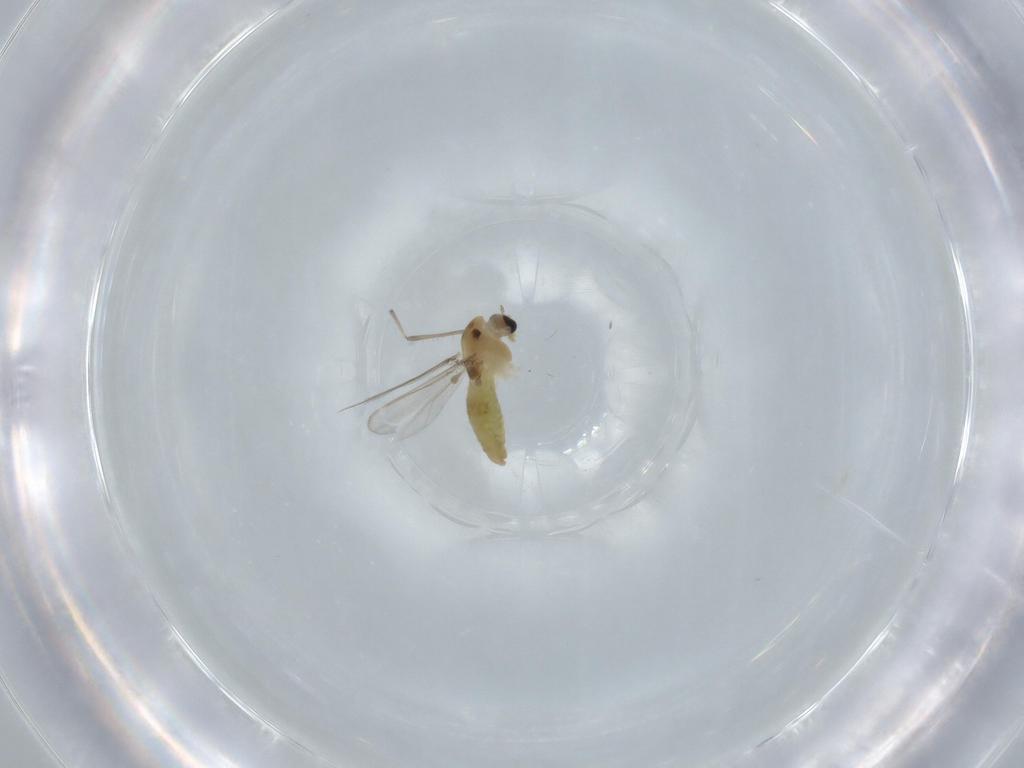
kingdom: Animalia
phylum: Arthropoda
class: Insecta
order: Diptera
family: Chironomidae
